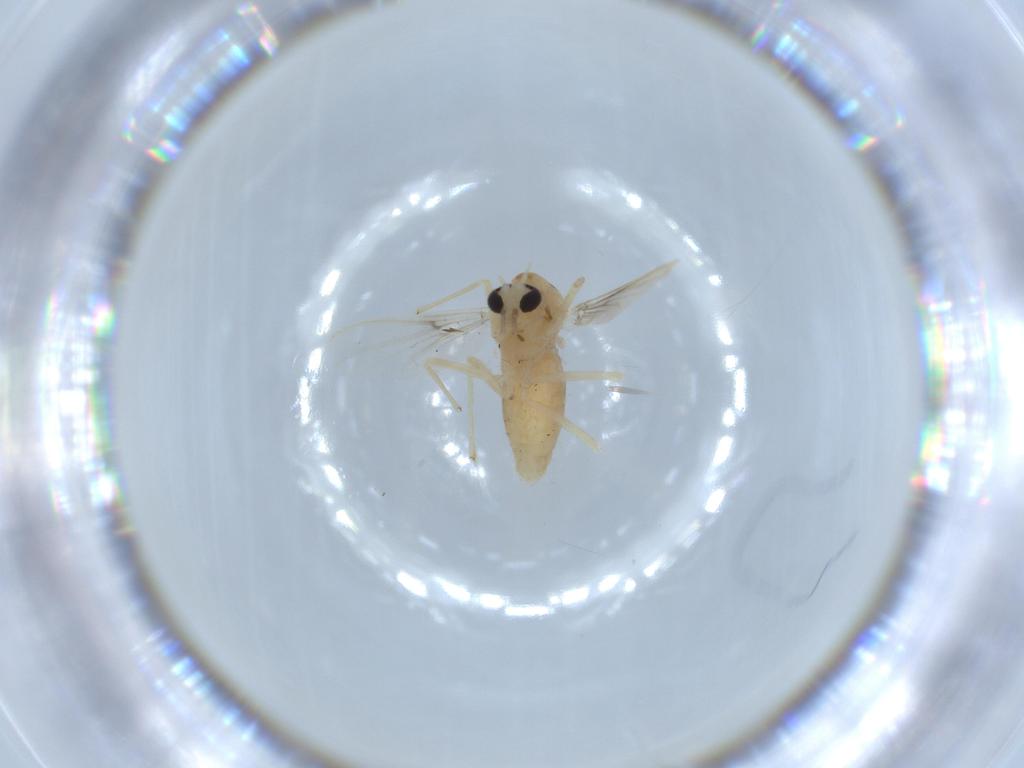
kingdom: Animalia
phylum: Arthropoda
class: Insecta
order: Diptera
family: Chironomidae
